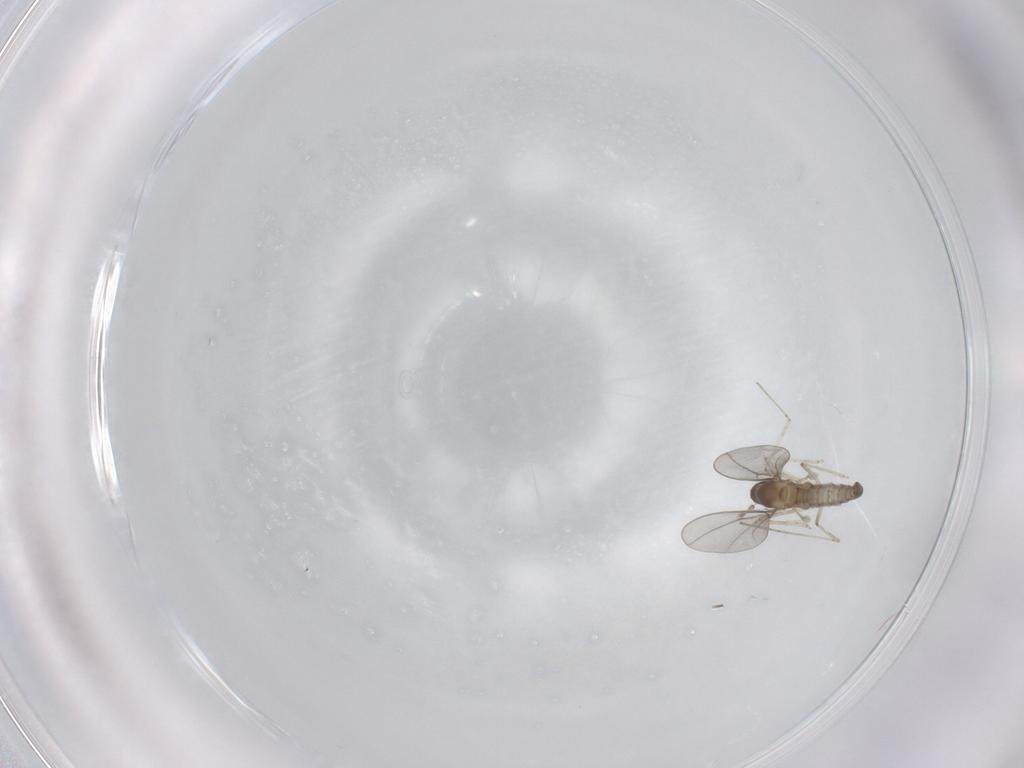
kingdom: Animalia
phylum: Arthropoda
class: Insecta
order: Diptera
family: Cecidomyiidae
